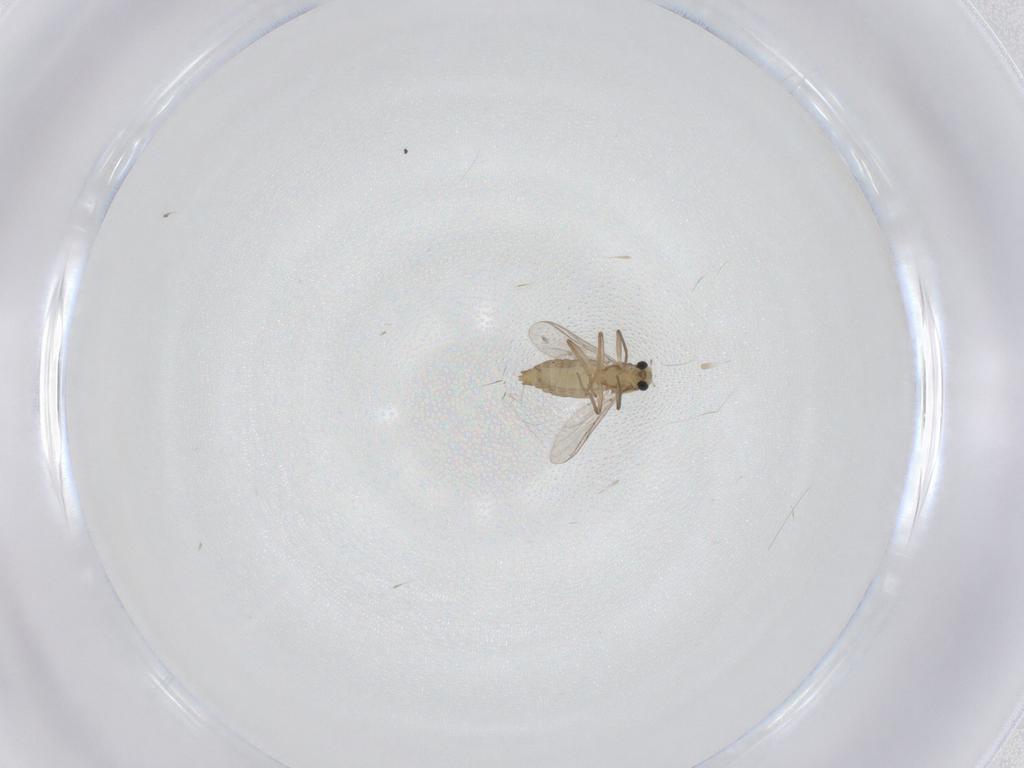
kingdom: Animalia
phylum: Arthropoda
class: Insecta
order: Diptera
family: Chironomidae
